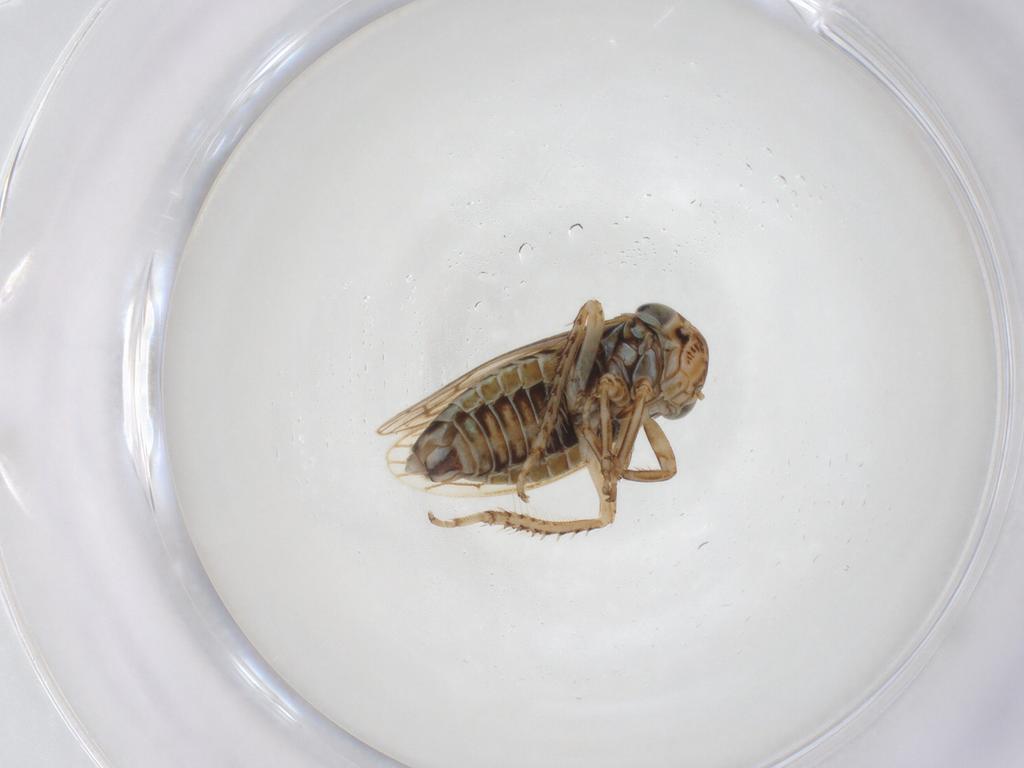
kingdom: Animalia
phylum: Arthropoda
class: Insecta
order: Hemiptera
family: Cicadellidae
